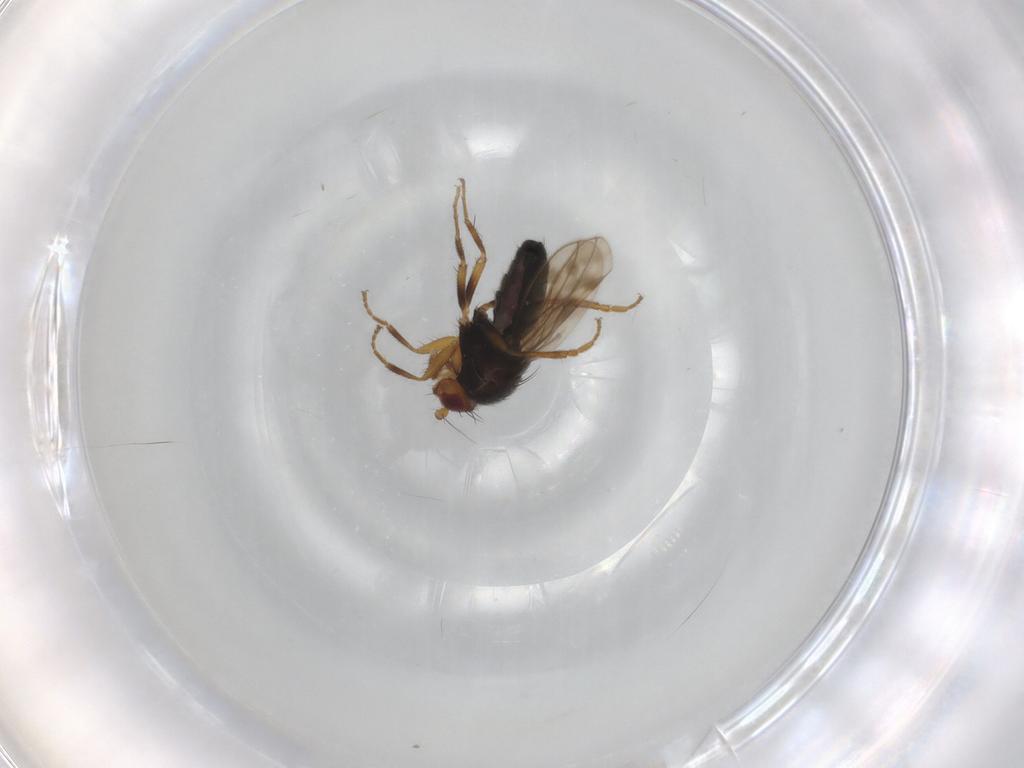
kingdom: Animalia
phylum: Arthropoda
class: Insecta
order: Diptera
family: Sphaeroceridae
